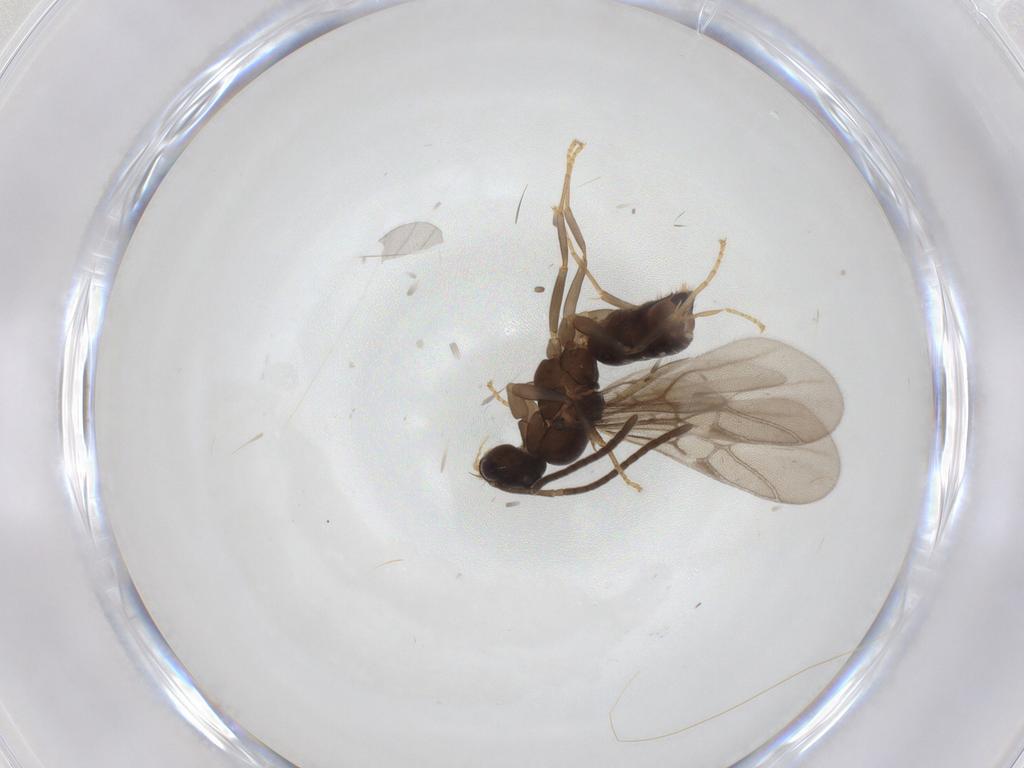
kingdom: Animalia
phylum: Arthropoda
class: Insecta
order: Hymenoptera
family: Formicidae
